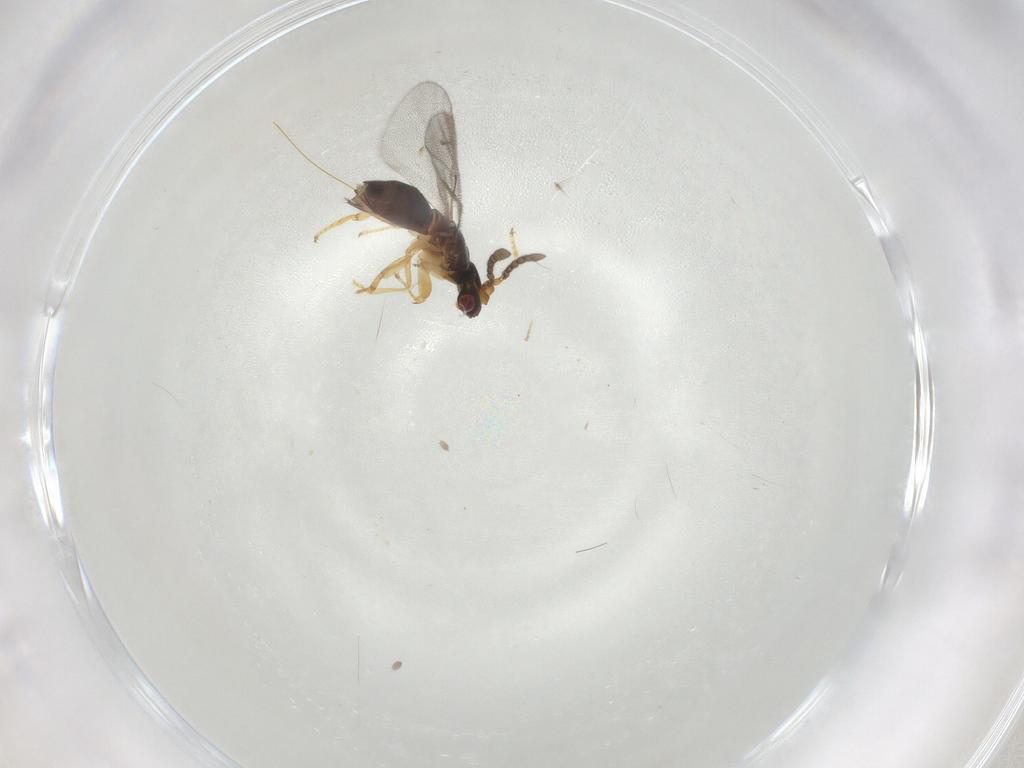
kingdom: Animalia
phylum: Arthropoda
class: Insecta
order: Hymenoptera
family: Agaonidae
